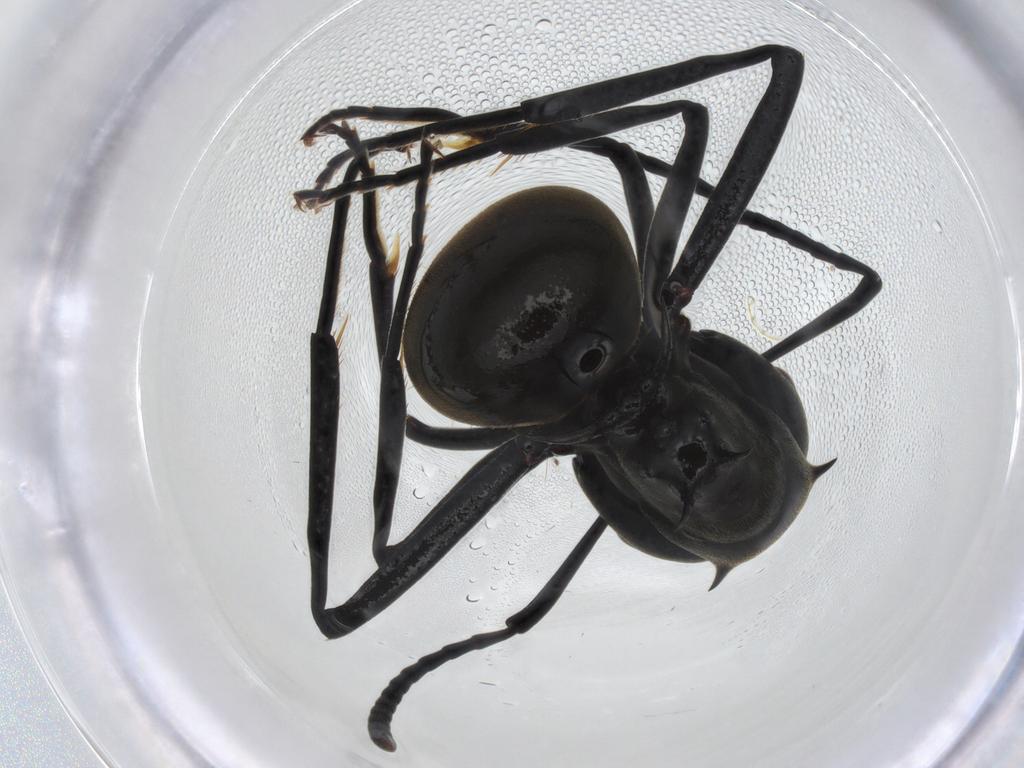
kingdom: Animalia
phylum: Arthropoda
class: Insecta
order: Hymenoptera
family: Formicidae
